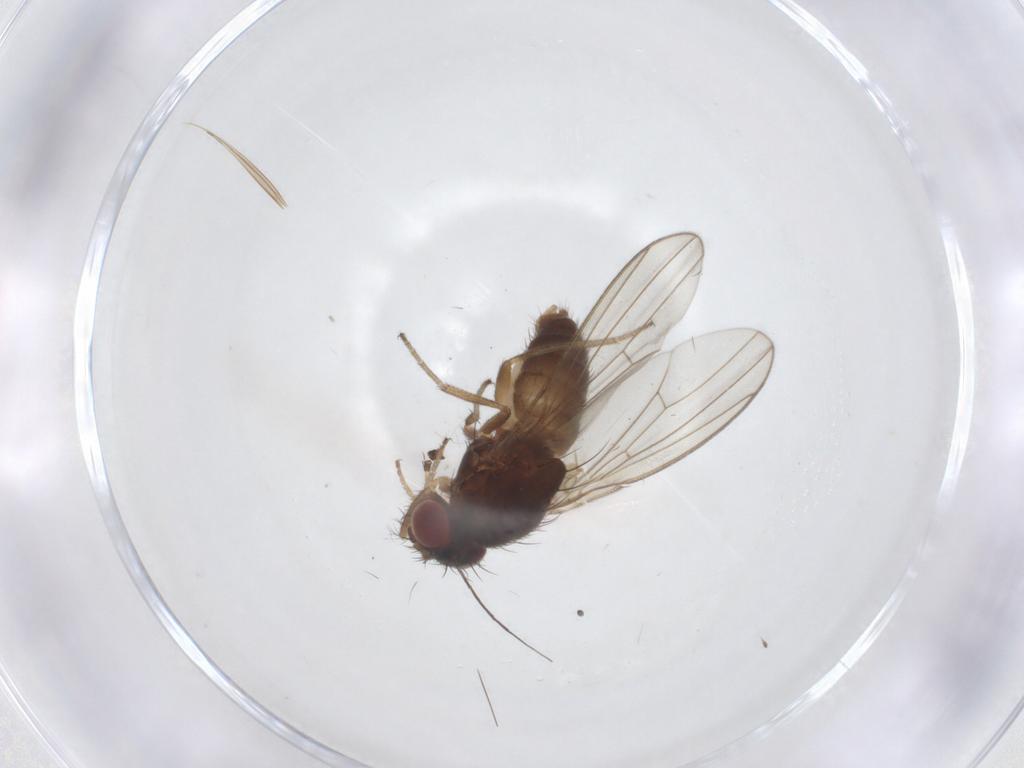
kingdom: Animalia
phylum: Arthropoda
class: Insecta
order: Diptera
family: Drosophilidae
